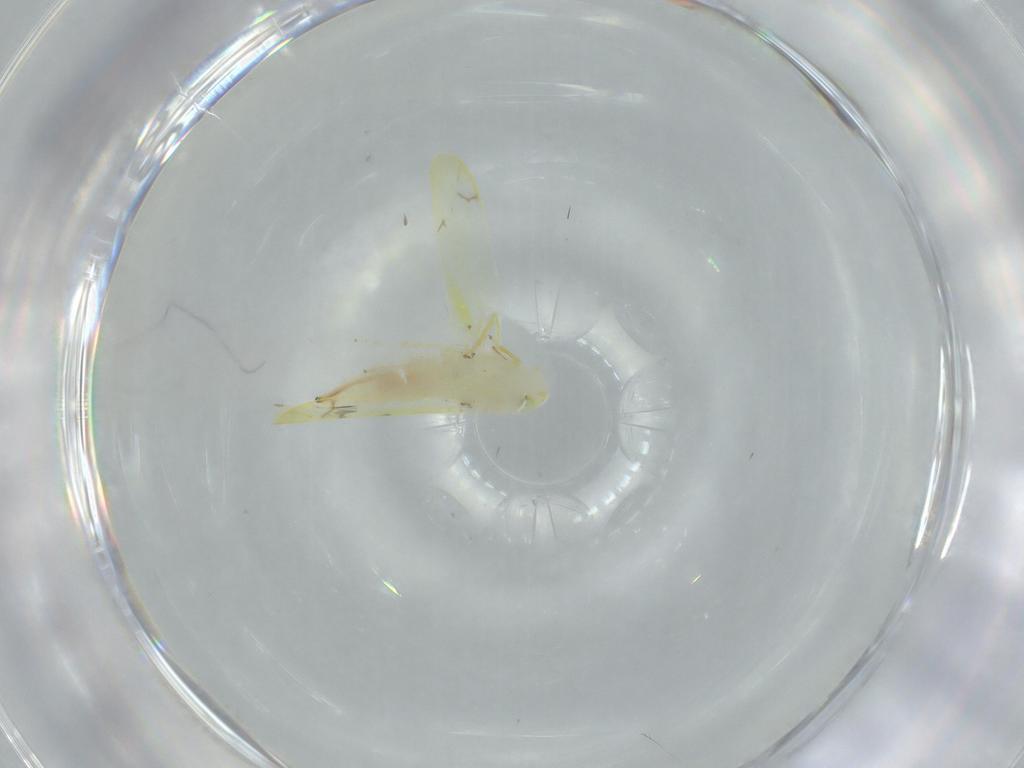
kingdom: Animalia
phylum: Arthropoda
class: Insecta
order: Hemiptera
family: Cicadellidae
